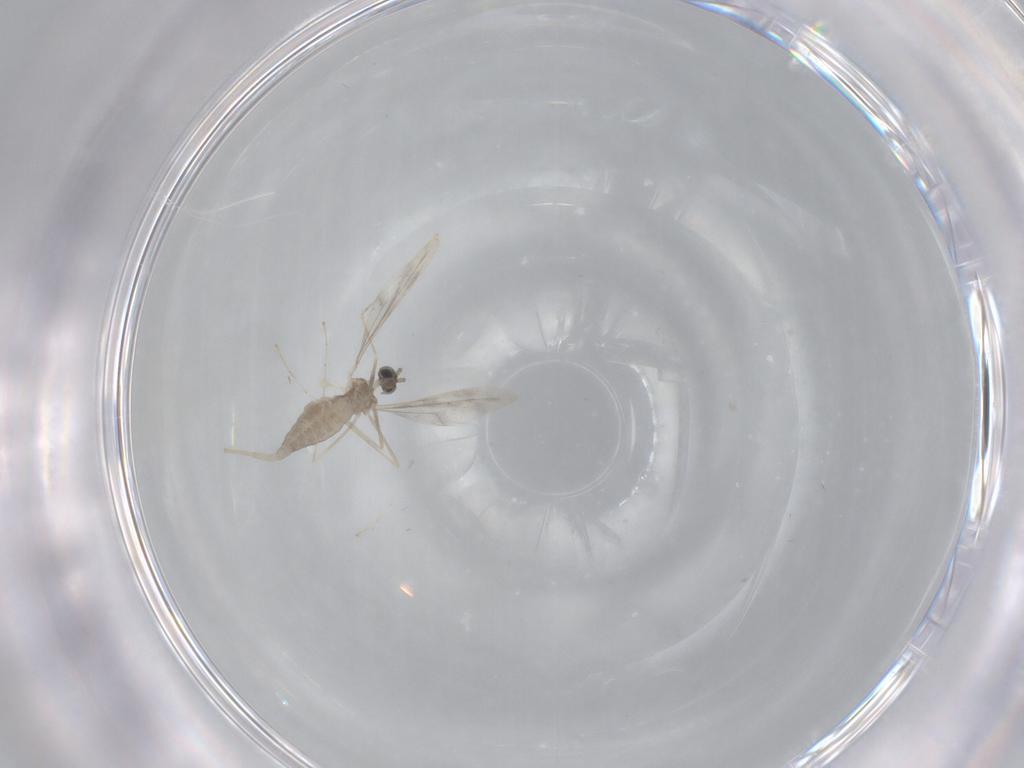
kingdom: Animalia
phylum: Arthropoda
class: Insecta
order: Diptera
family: Cecidomyiidae
